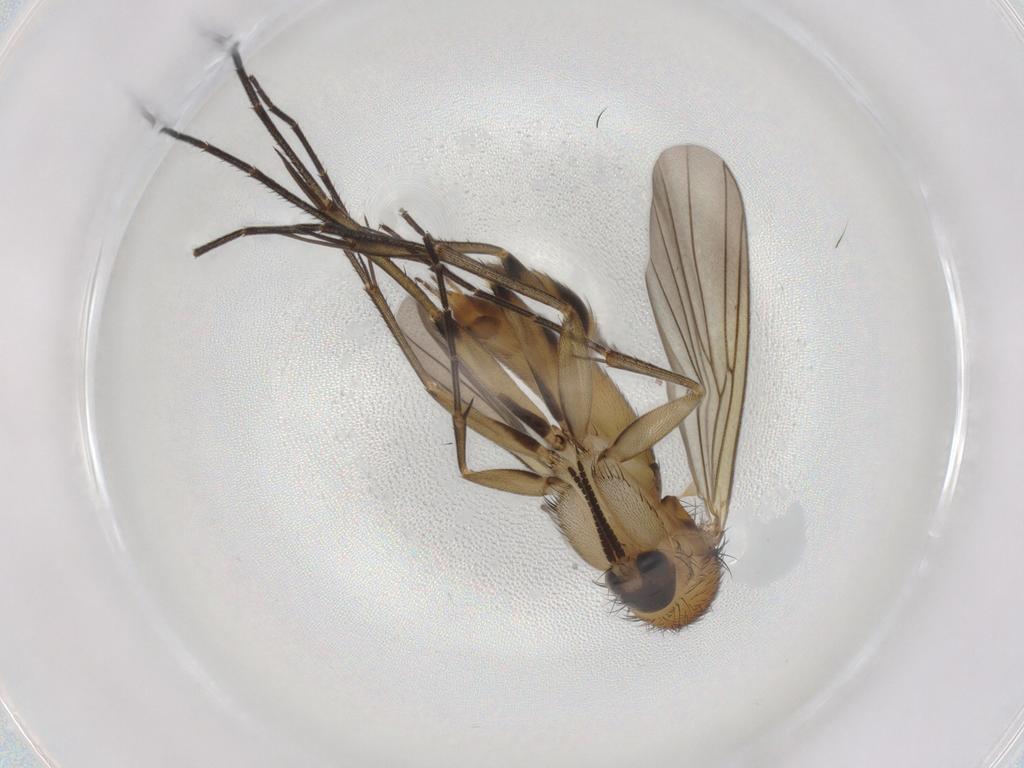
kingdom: Animalia
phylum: Arthropoda
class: Insecta
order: Diptera
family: Mycetophilidae
